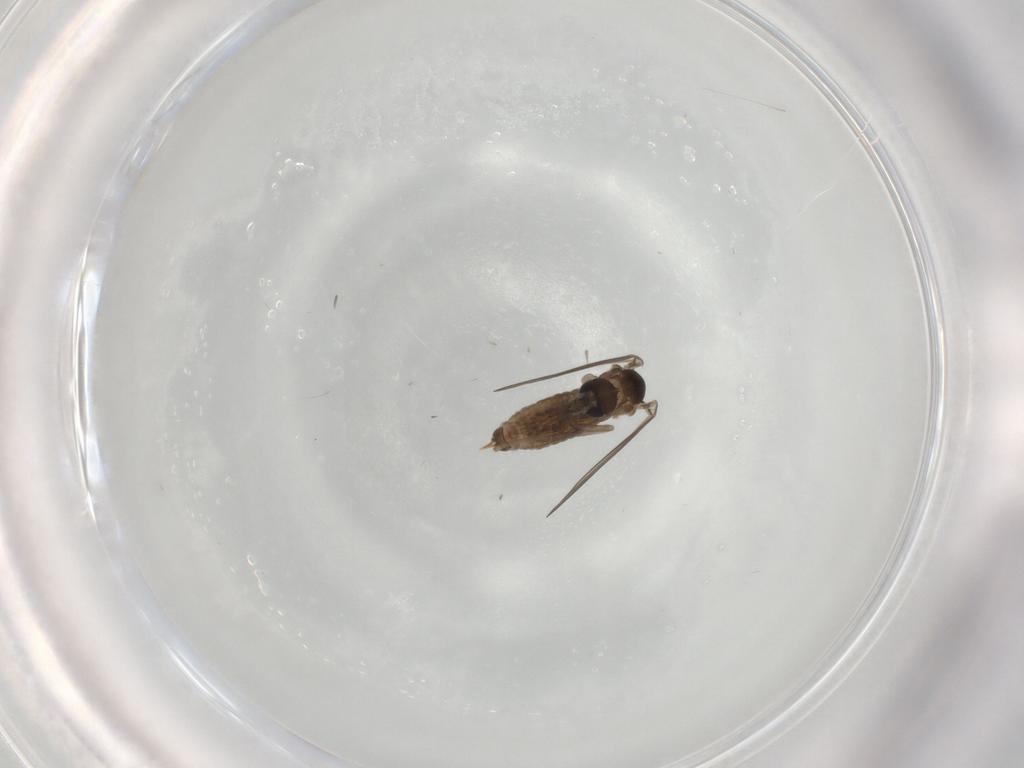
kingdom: Animalia
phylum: Arthropoda
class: Insecta
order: Diptera
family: Psychodidae
